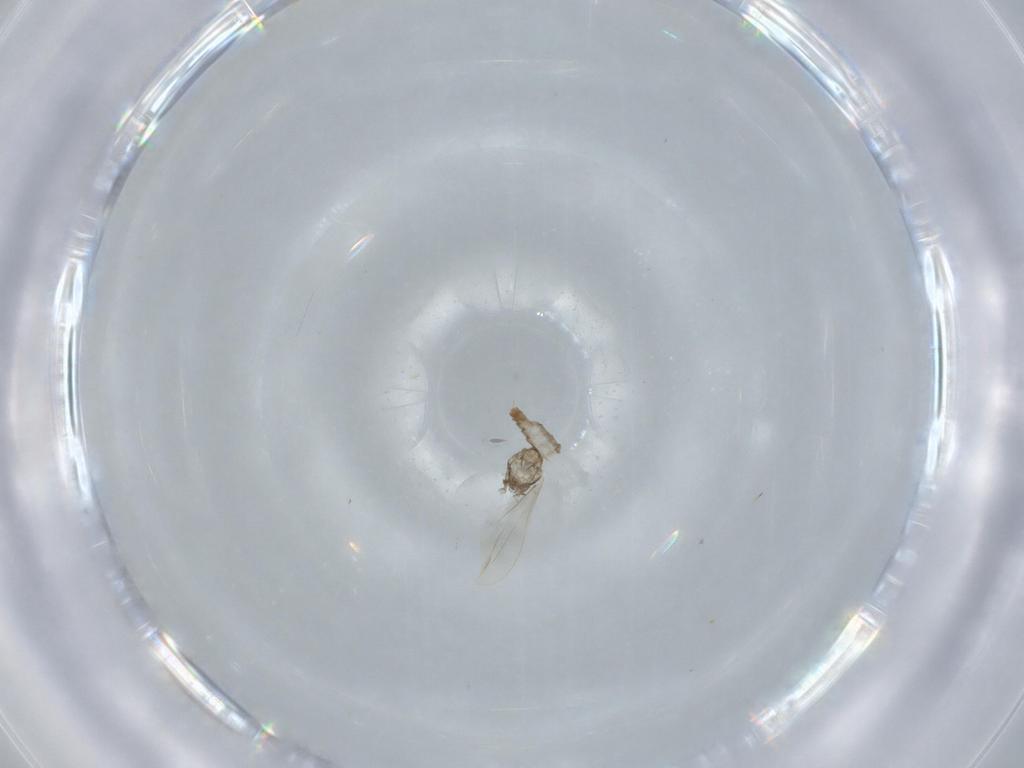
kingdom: Animalia
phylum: Arthropoda
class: Insecta
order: Diptera
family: Cecidomyiidae
